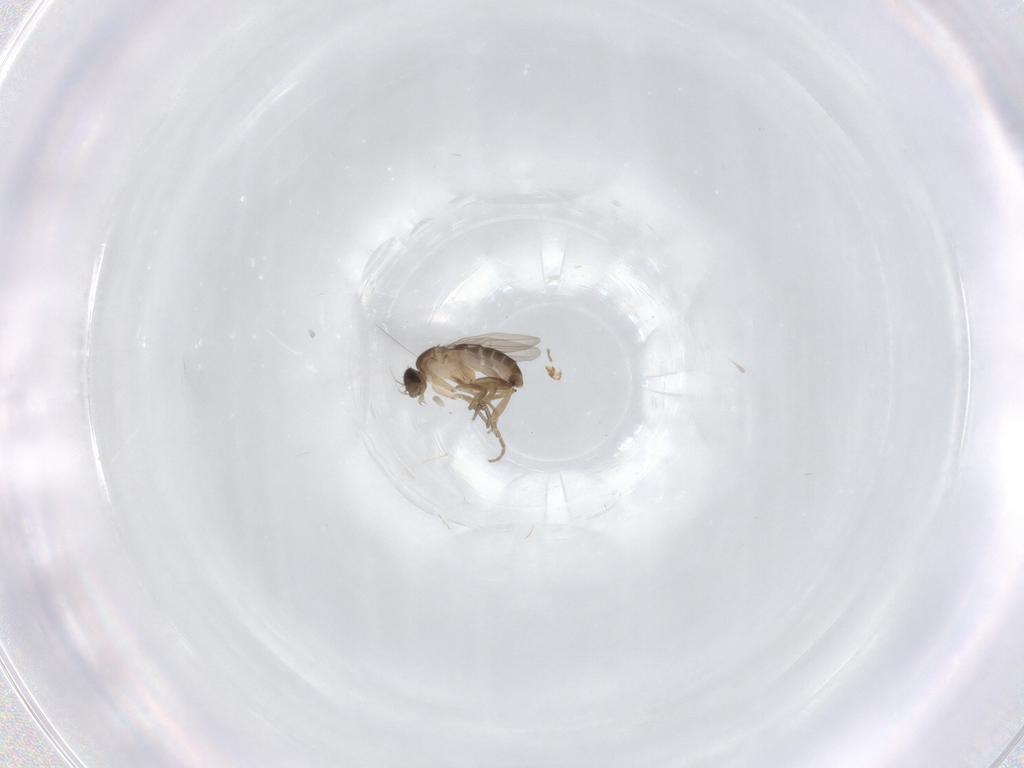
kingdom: Animalia
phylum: Arthropoda
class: Insecta
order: Diptera
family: Phoridae
